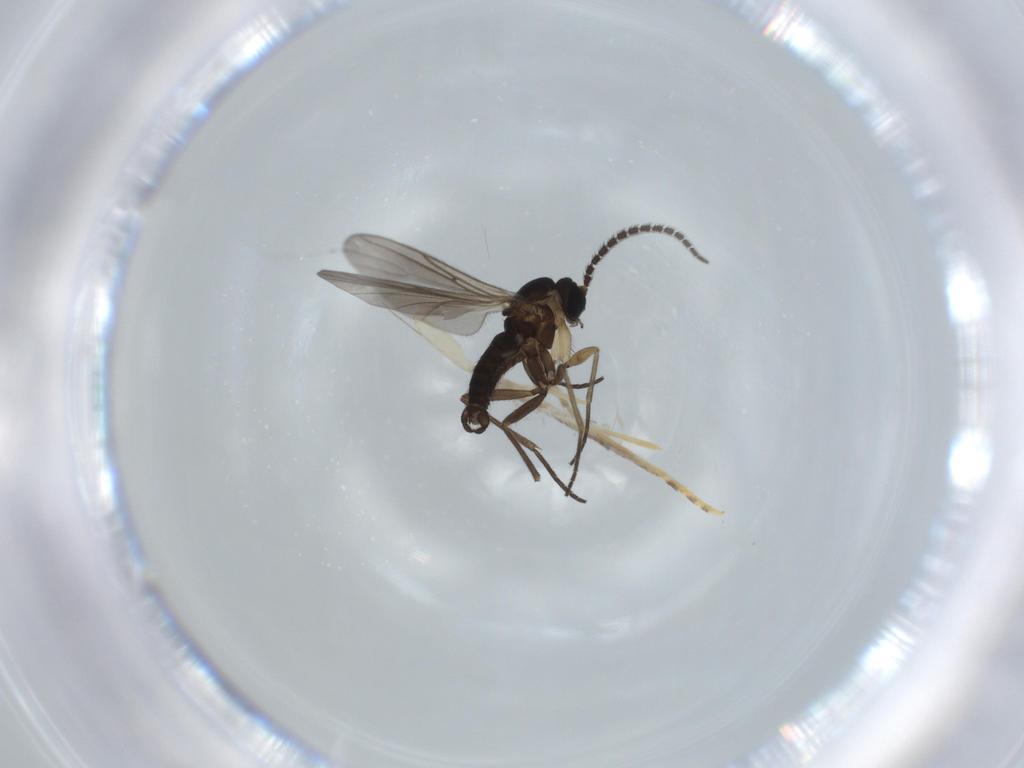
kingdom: Animalia
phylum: Arthropoda
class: Insecta
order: Diptera
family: Sciaridae
